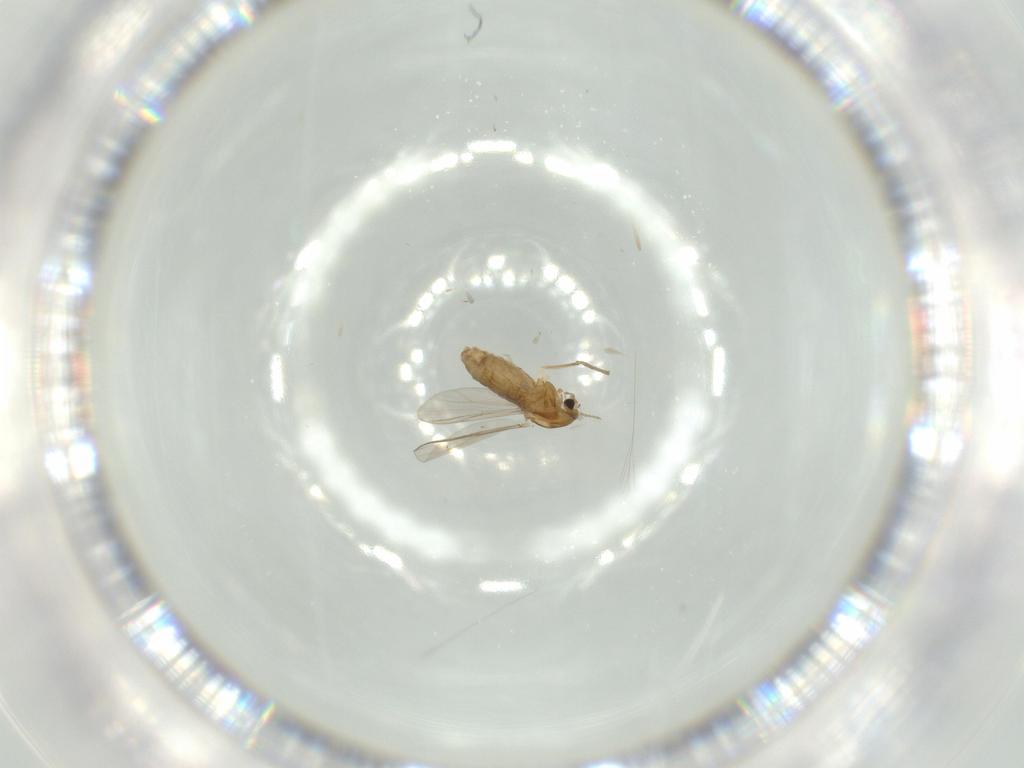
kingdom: Animalia
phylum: Arthropoda
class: Insecta
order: Diptera
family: Chironomidae
